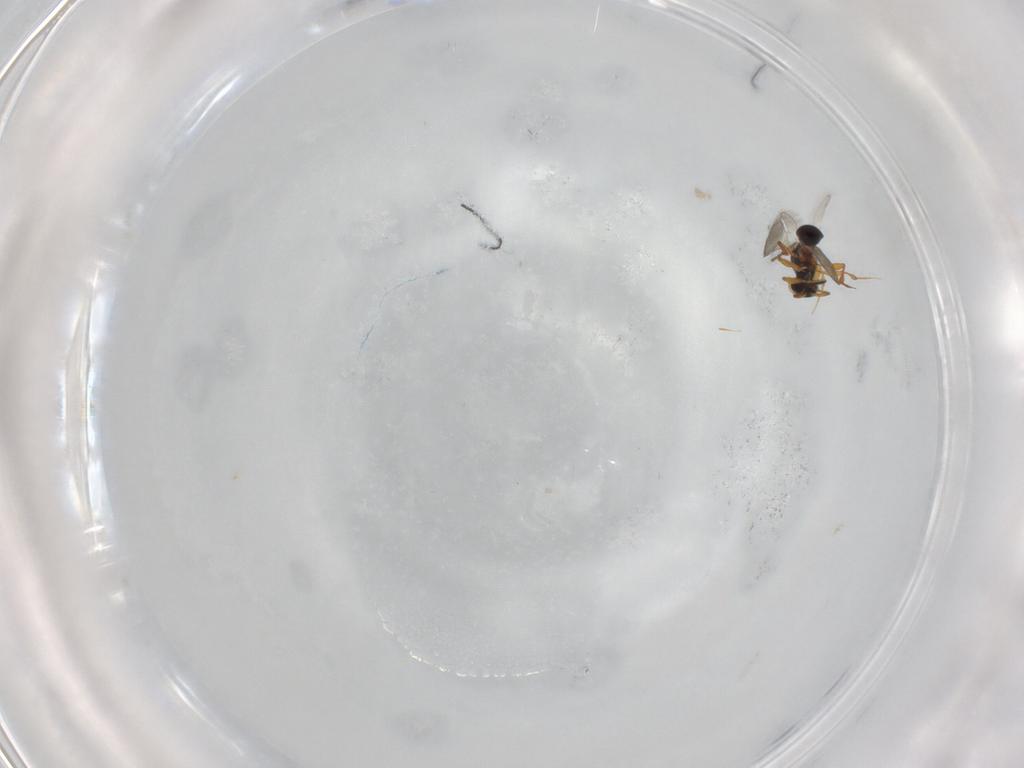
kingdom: Animalia
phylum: Arthropoda
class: Insecta
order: Hymenoptera
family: Platygastridae
